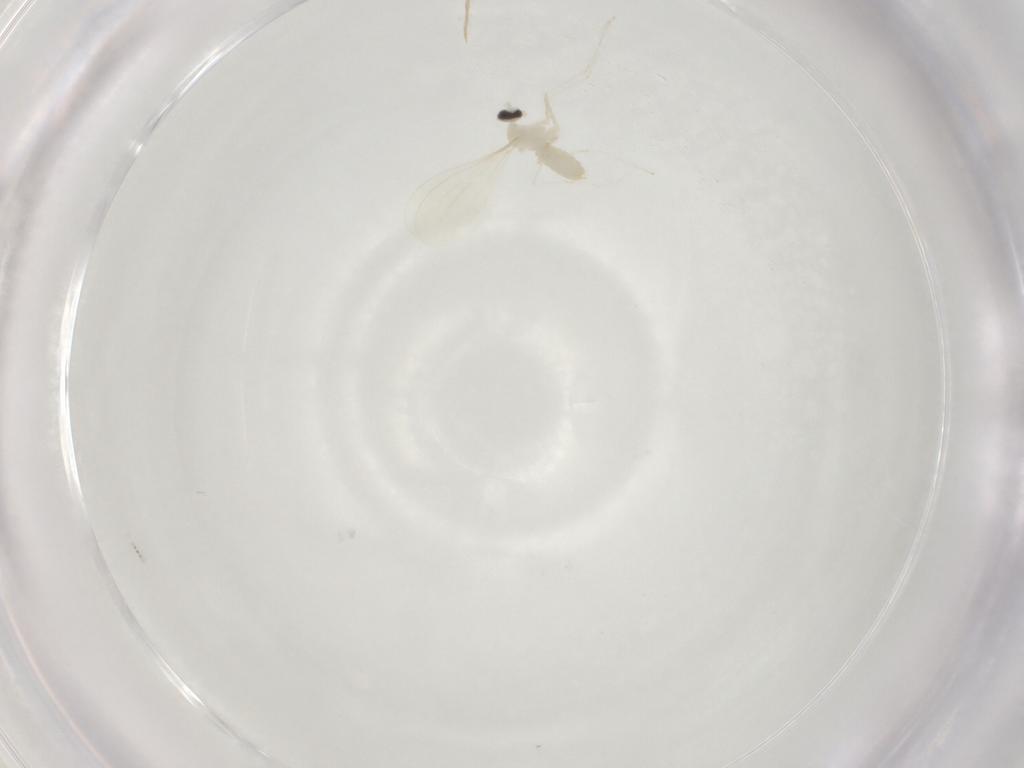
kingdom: Animalia
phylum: Arthropoda
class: Insecta
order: Diptera
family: Cecidomyiidae
